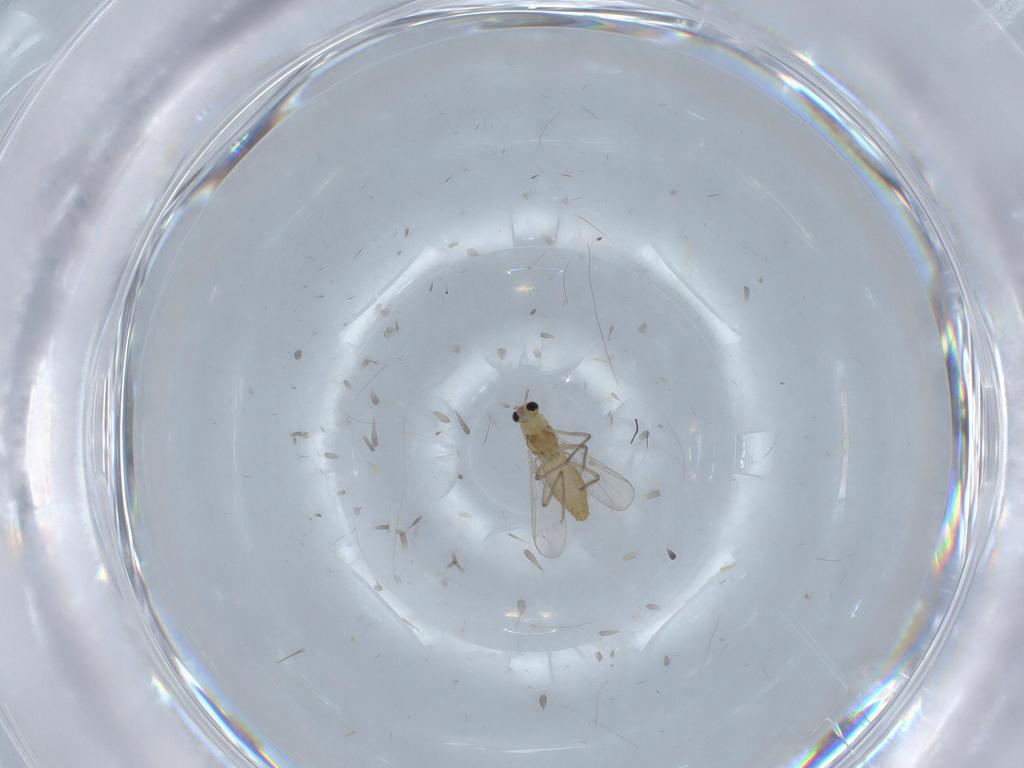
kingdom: Animalia
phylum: Arthropoda
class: Insecta
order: Diptera
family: Chironomidae
